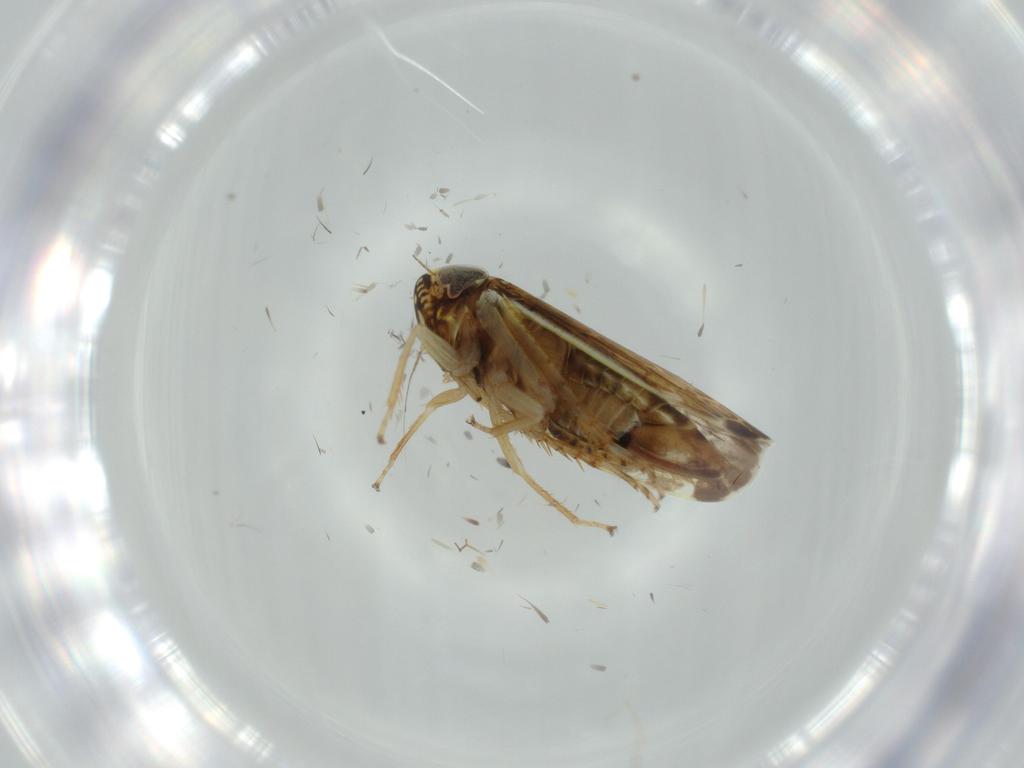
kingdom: Animalia
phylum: Arthropoda
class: Insecta
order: Hemiptera
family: Cicadellidae
